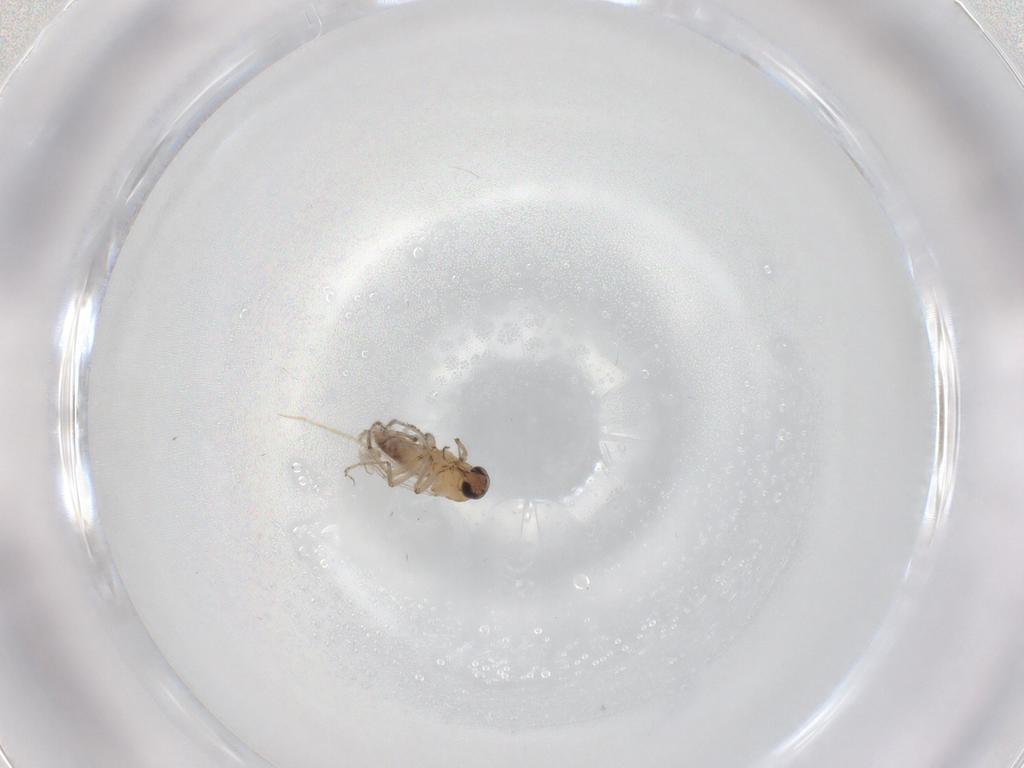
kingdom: Animalia
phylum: Arthropoda
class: Insecta
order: Diptera
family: Ceratopogonidae
